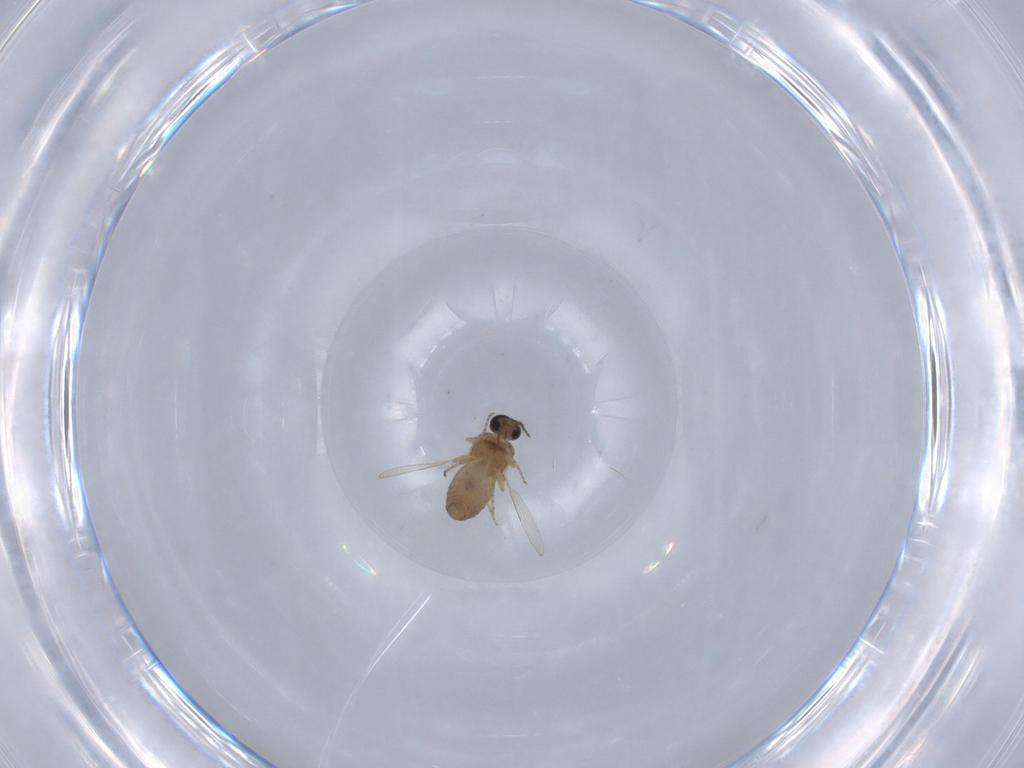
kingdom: Animalia
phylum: Arthropoda
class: Insecta
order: Diptera
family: Ceratopogonidae
